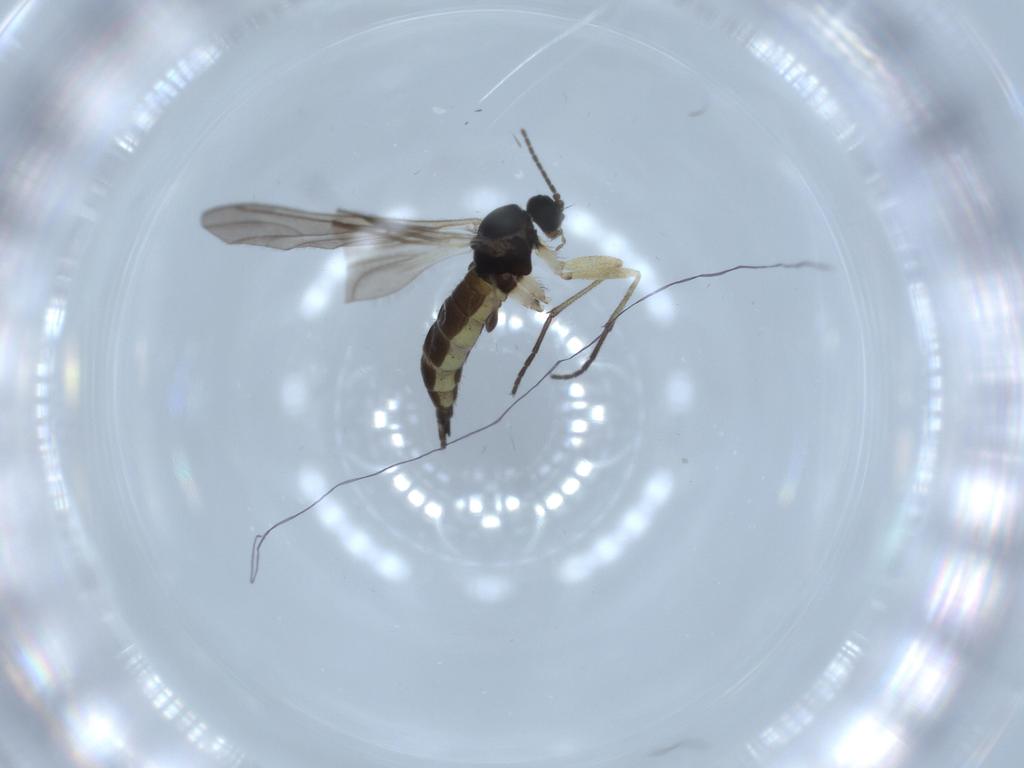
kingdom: Animalia
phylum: Arthropoda
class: Insecta
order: Diptera
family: Sciaridae
